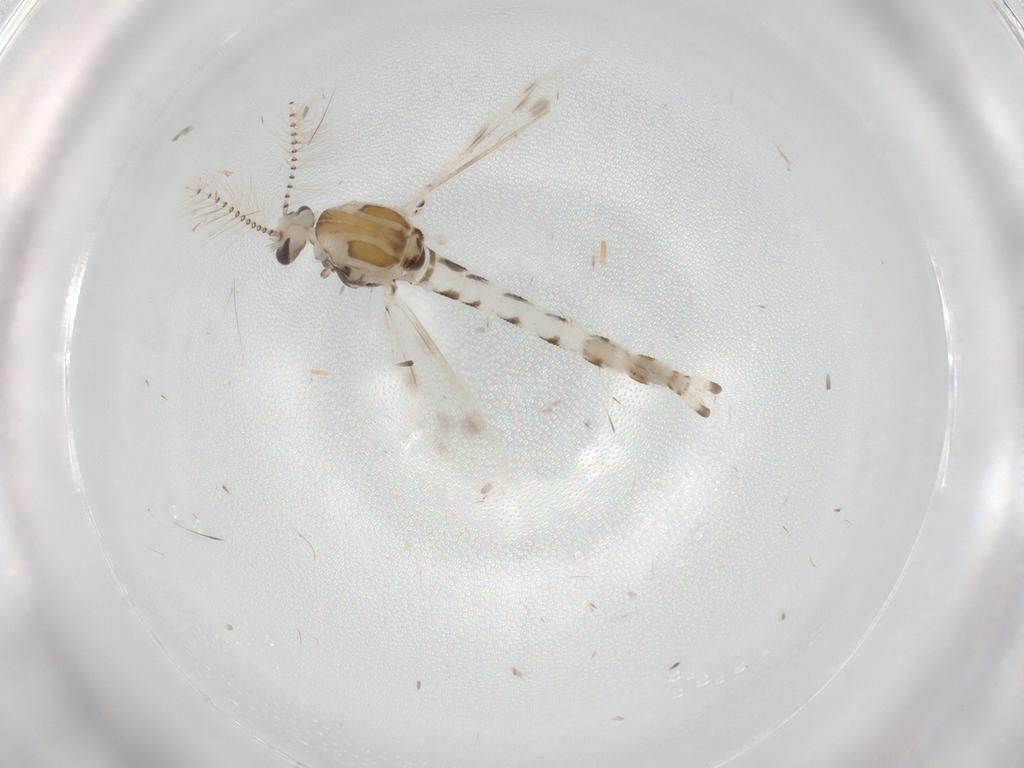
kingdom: Animalia
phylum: Arthropoda
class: Insecta
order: Diptera
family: Corethrellidae
